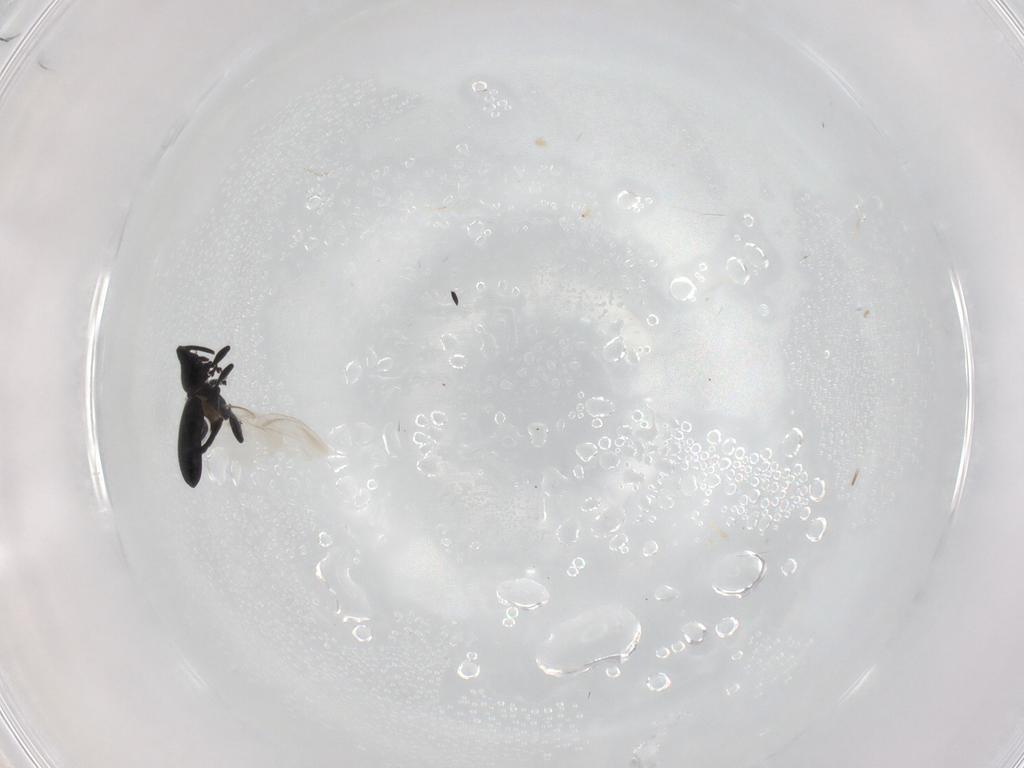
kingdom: Animalia
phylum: Arthropoda
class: Insecta
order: Coleoptera
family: Curculionidae
